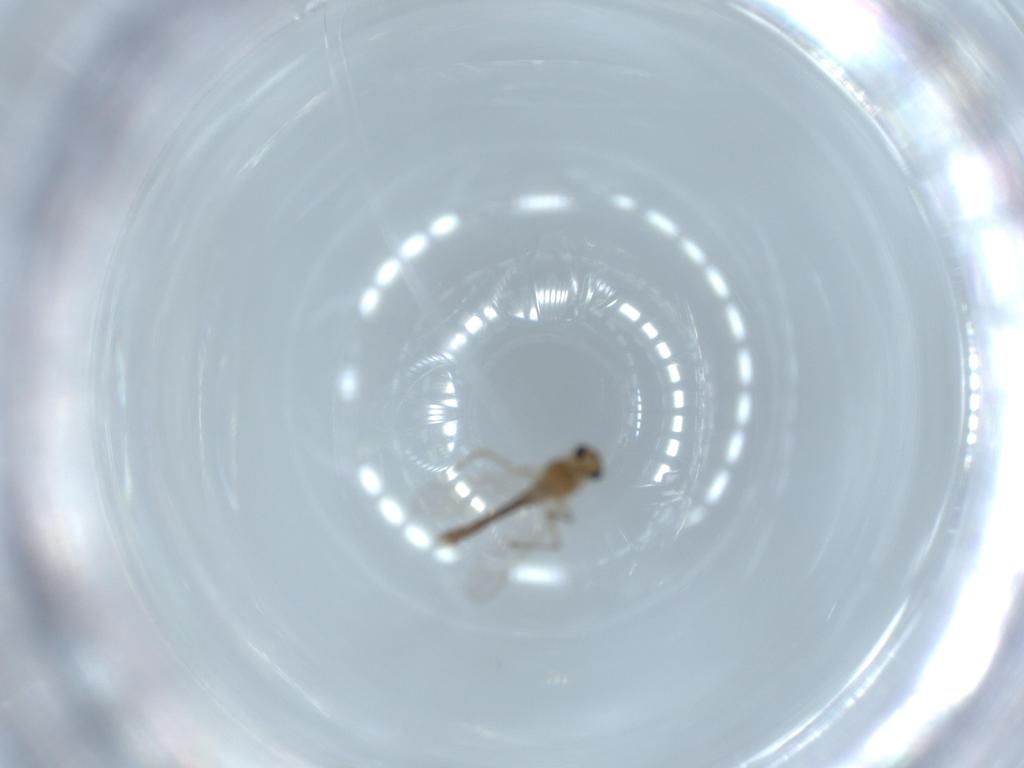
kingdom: Animalia
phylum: Arthropoda
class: Insecta
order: Diptera
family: Chironomidae
